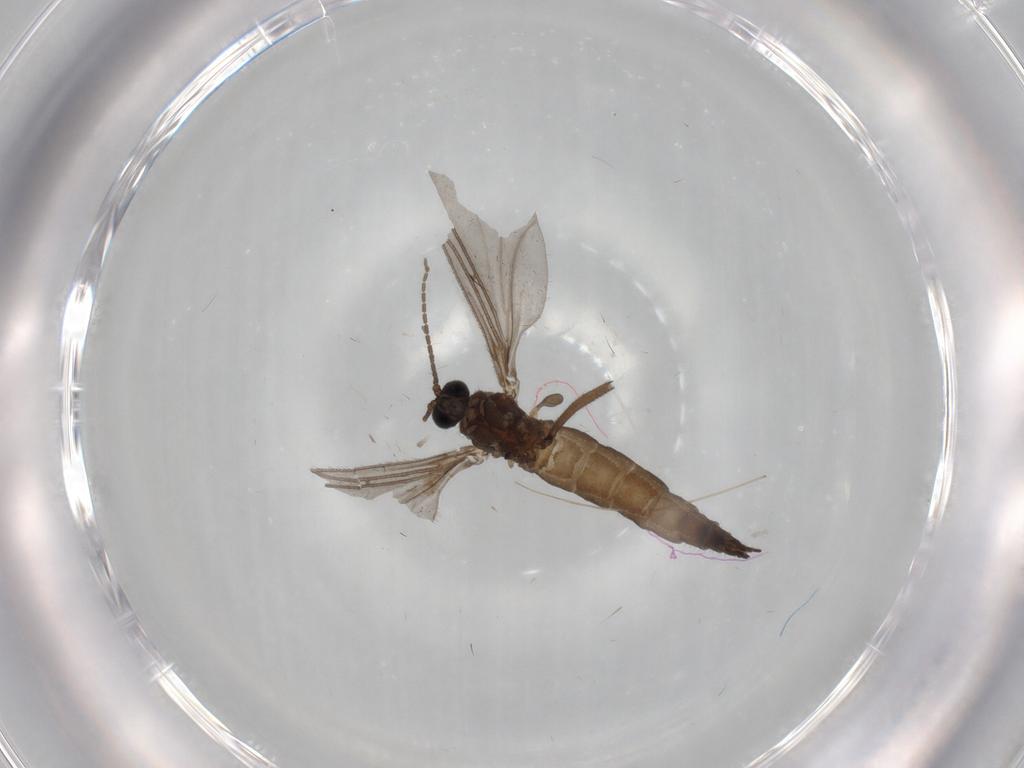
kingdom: Animalia
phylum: Arthropoda
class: Insecta
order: Diptera
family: Sciaridae
